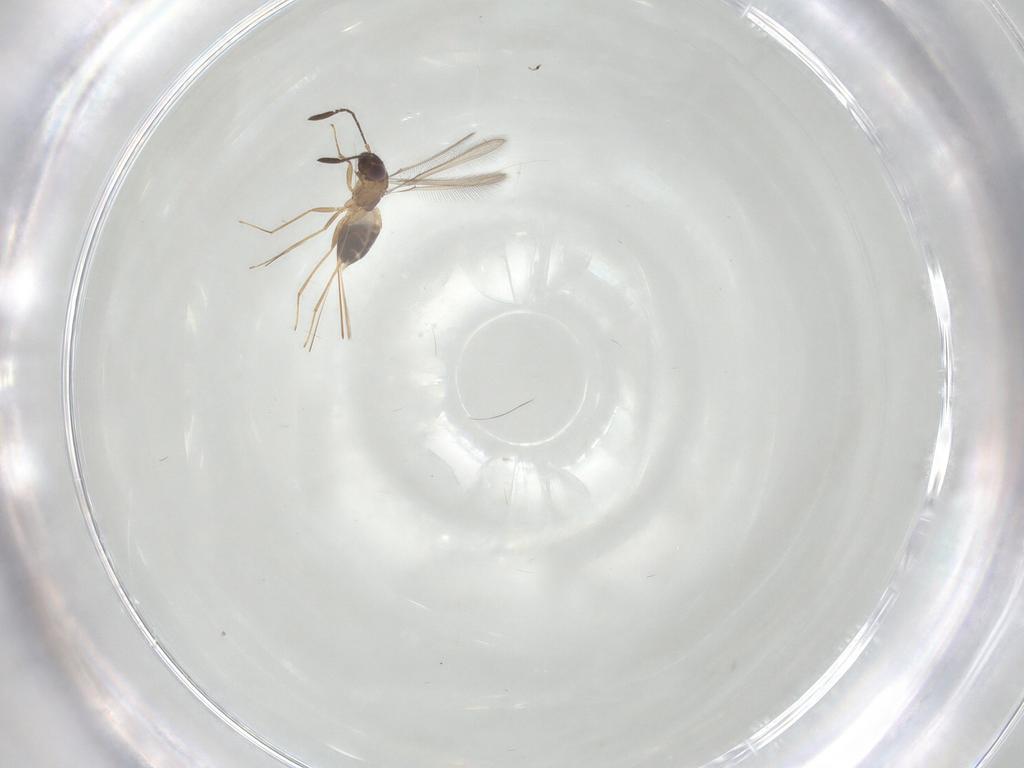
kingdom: Animalia
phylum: Arthropoda
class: Insecta
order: Hymenoptera
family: Mymaridae
